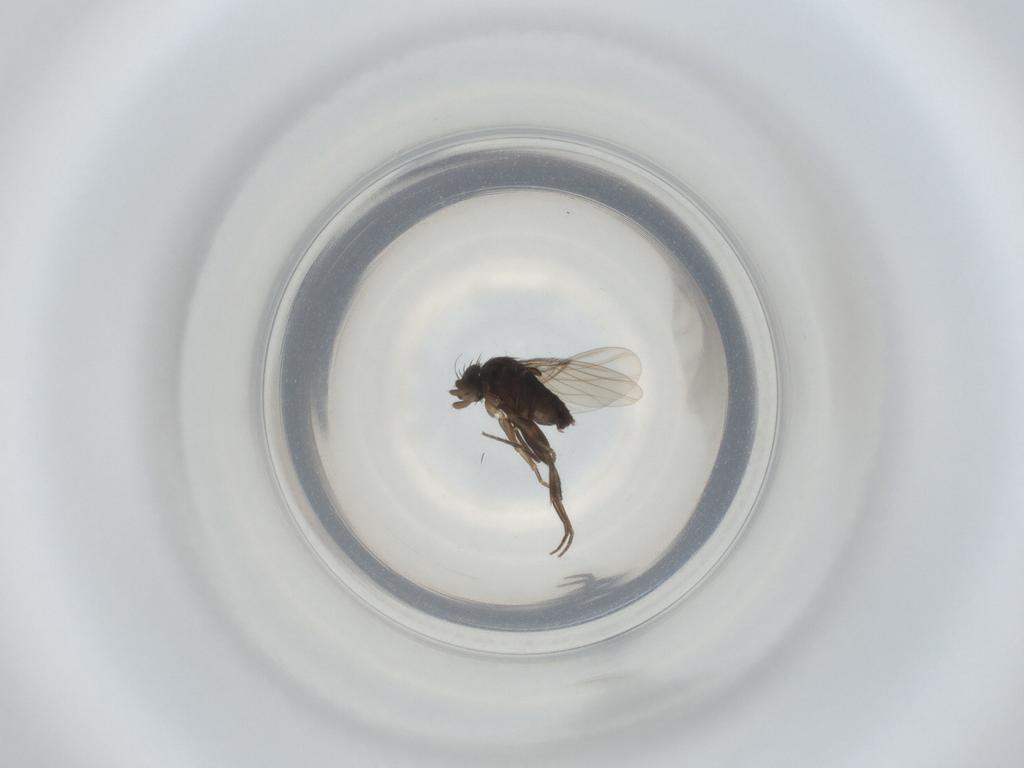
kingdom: Animalia
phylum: Arthropoda
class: Insecta
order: Diptera
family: Phoridae
